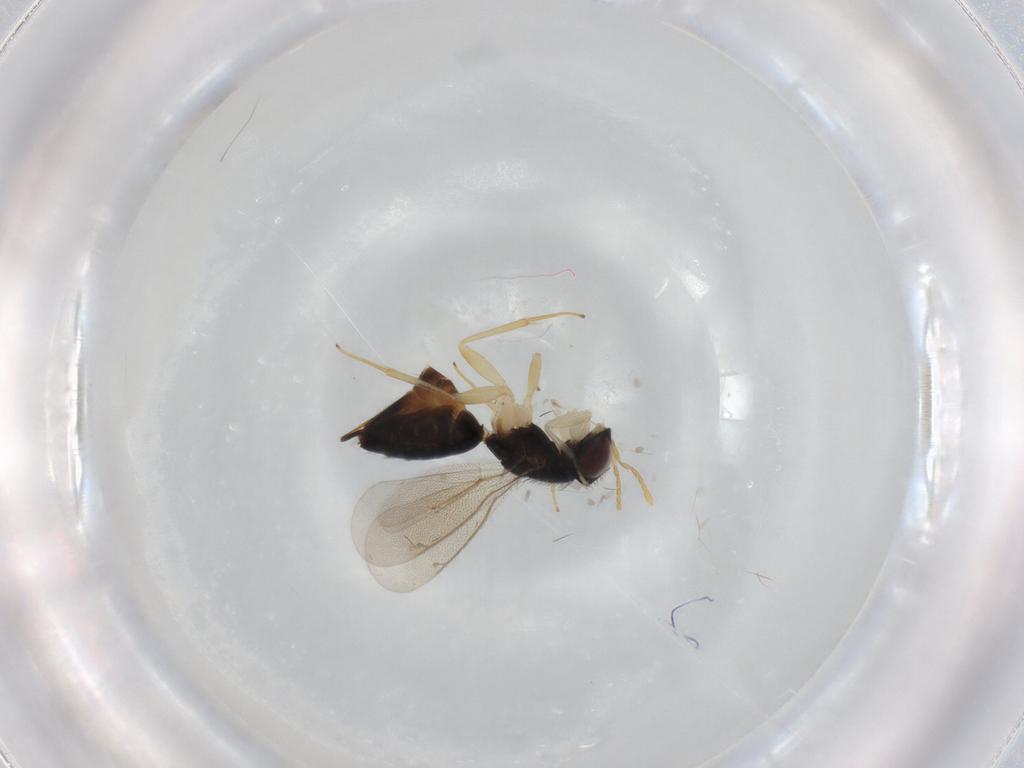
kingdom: Animalia
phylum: Arthropoda
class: Insecta
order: Hymenoptera
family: Eulophidae
